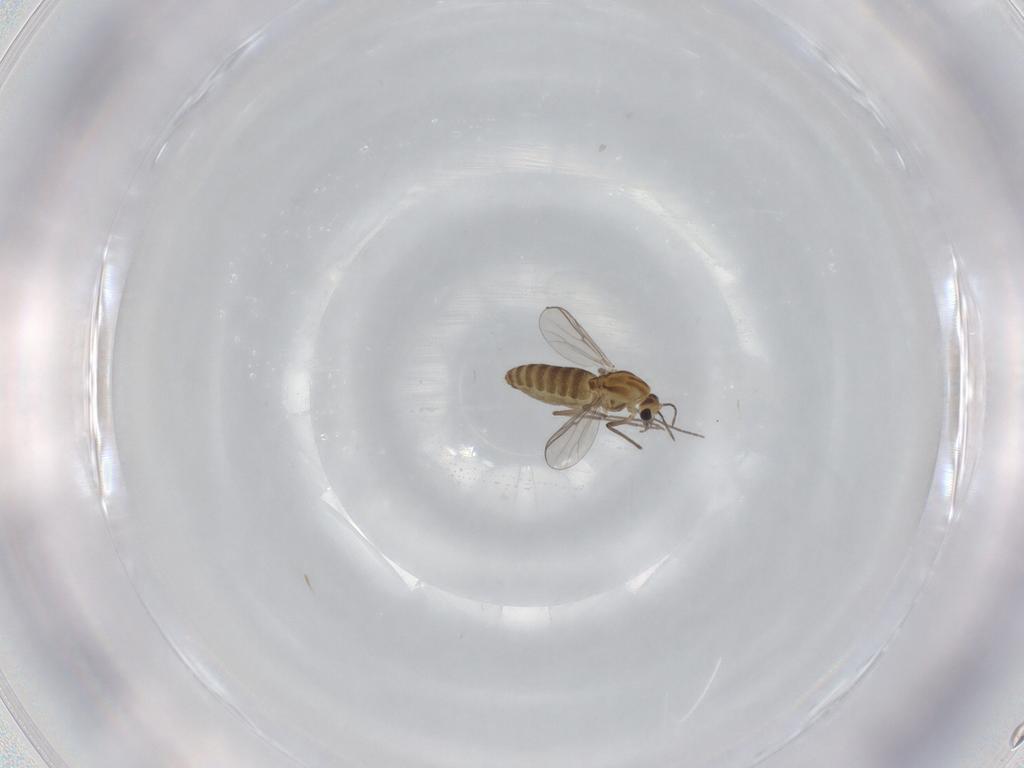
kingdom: Animalia
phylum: Arthropoda
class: Insecta
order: Diptera
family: Chironomidae
